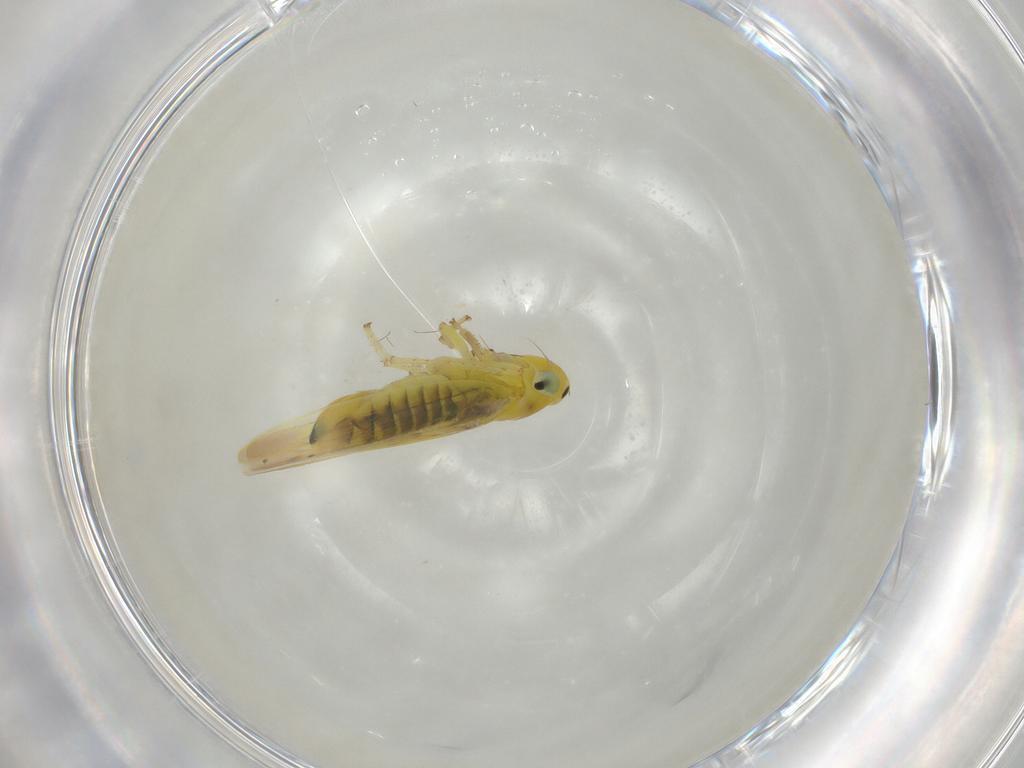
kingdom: Animalia
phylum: Arthropoda
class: Insecta
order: Hemiptera
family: Cicadellidae
